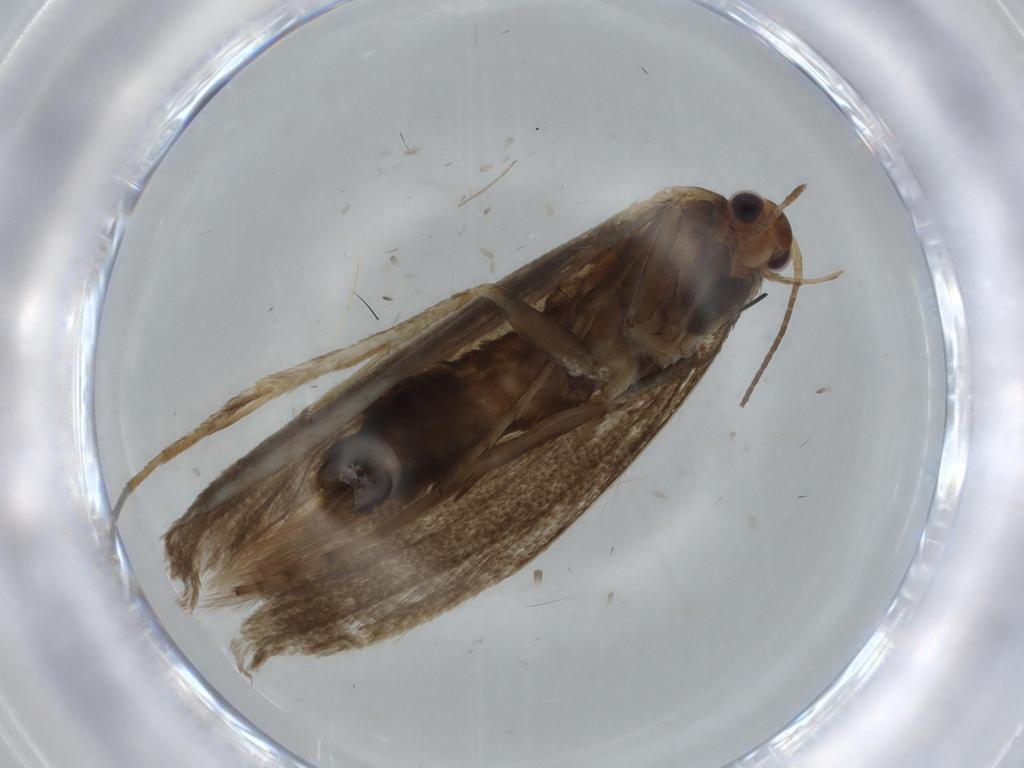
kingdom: Animalia
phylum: Arthropoda
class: Insecta
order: Lepidoptera
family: Gelechiidae
